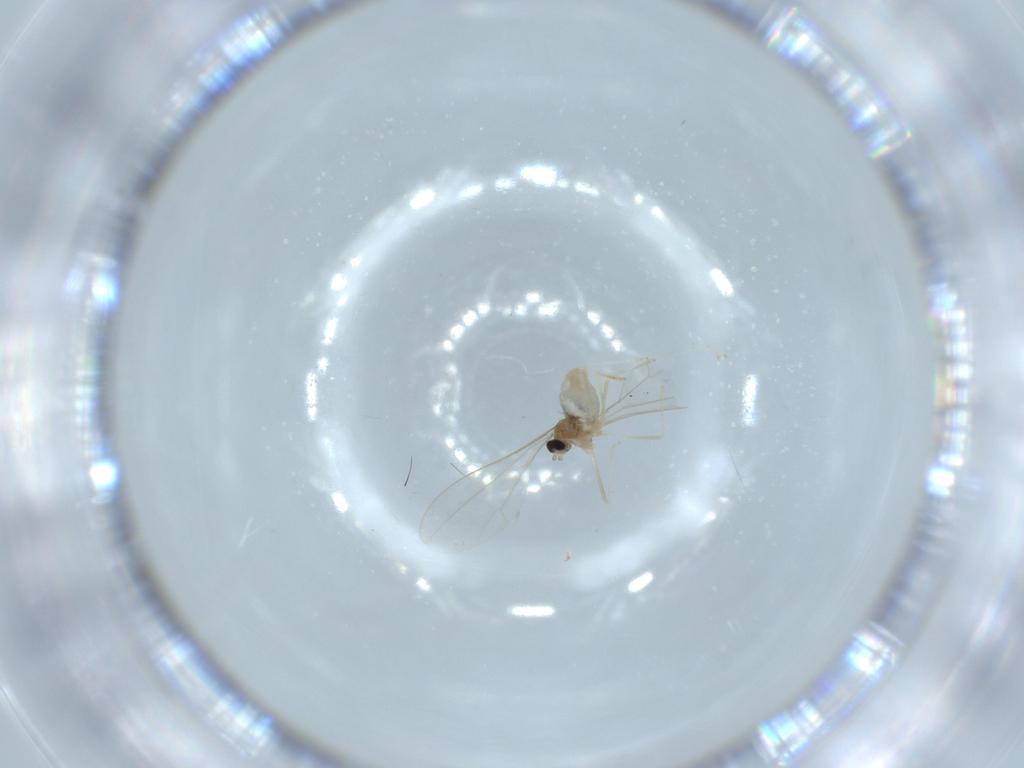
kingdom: Animalia
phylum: Arthropoda
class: Insecta
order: Diptera
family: Cecidomyiidae
